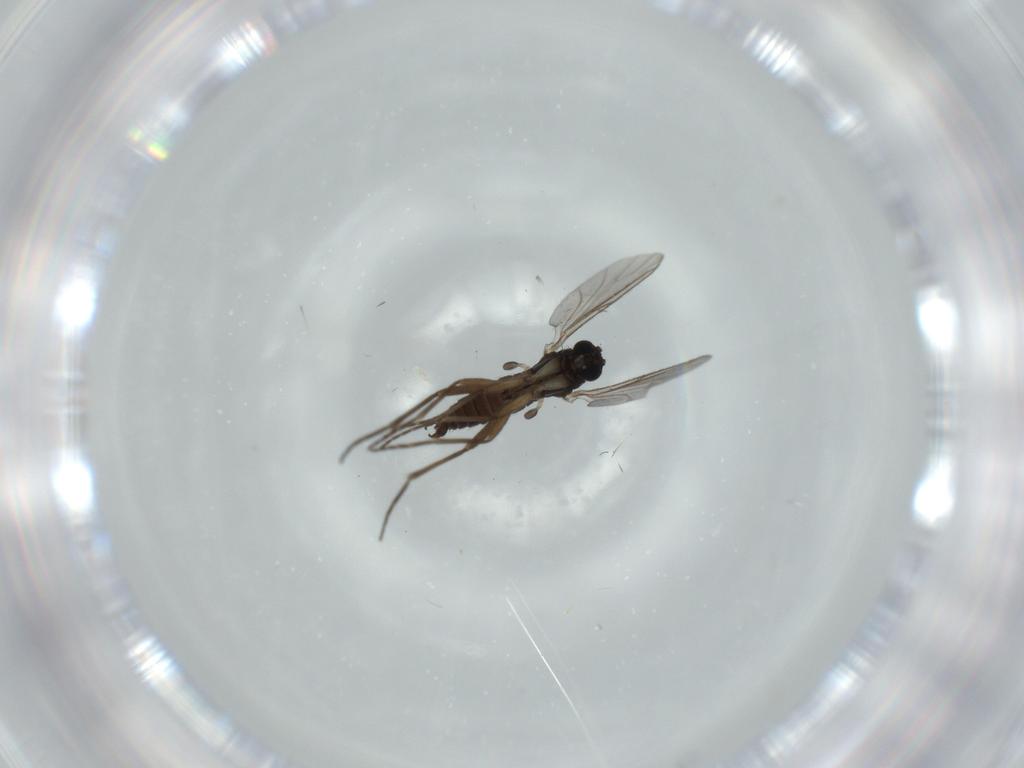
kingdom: Animalia
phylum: Arthropoda
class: Insecta
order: Diptera
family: Sciaridae
